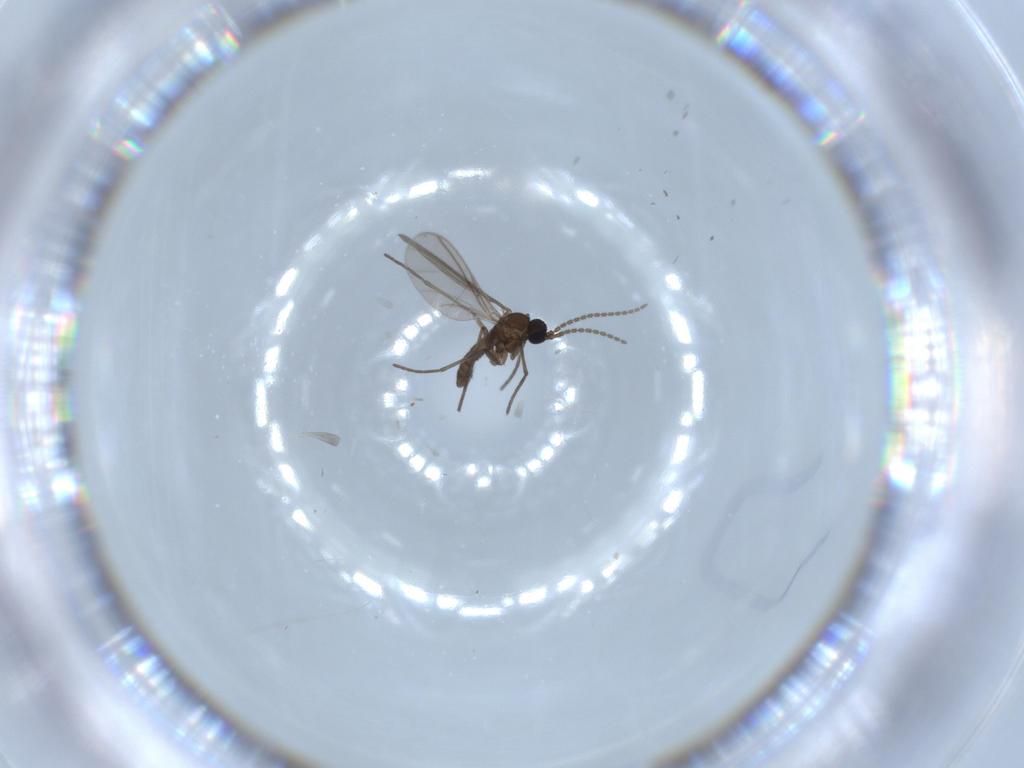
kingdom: Animalia
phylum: Arthropoda
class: Insecta
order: Diptera
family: Sciaridae
